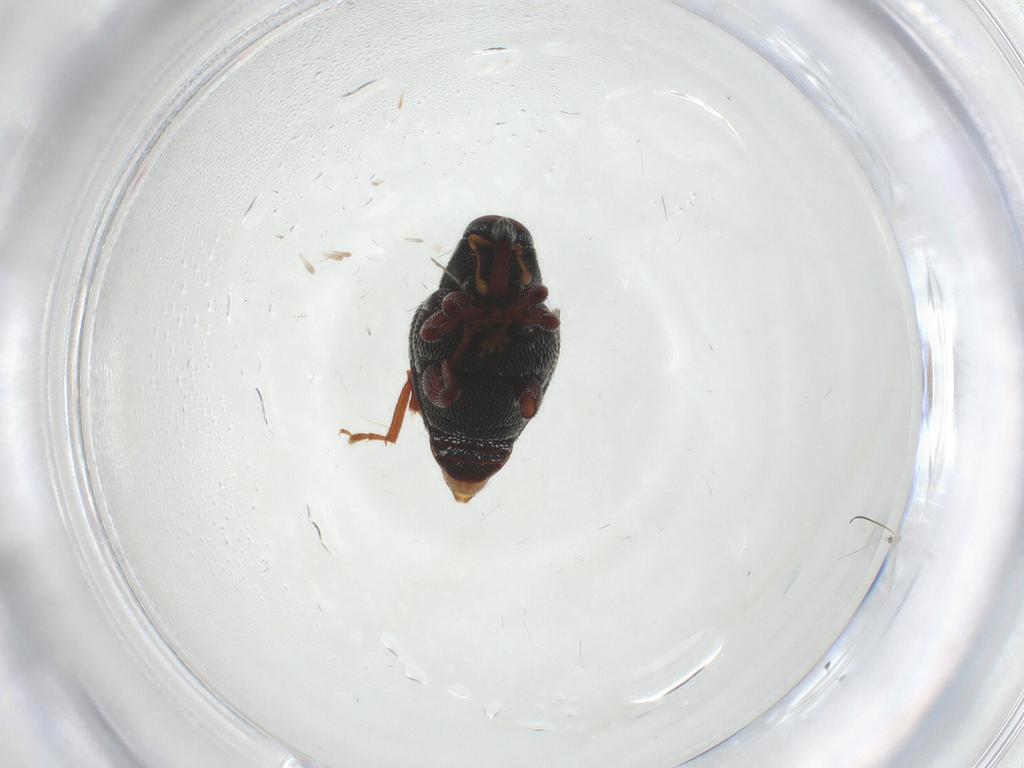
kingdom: Animalia
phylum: Arthropoda
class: Insecta
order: Coleoptera
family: Curculionidae
